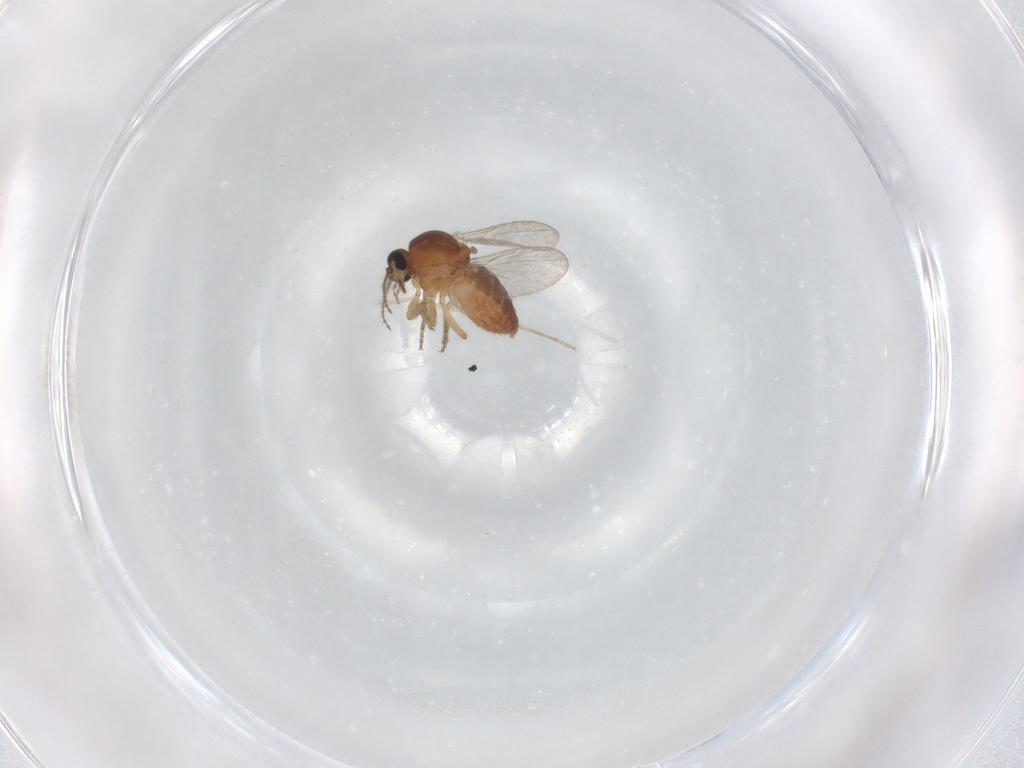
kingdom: Animalia
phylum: Arthropoda
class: Insecta
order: Diptera
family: Ceratopogonidae
